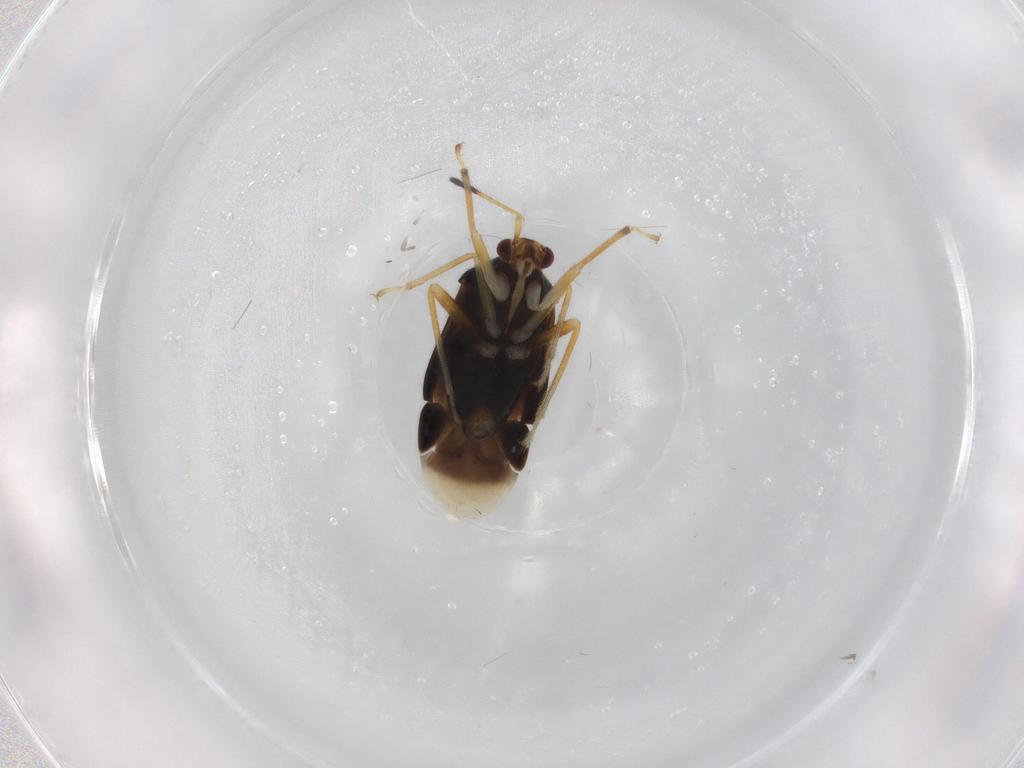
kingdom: Animalia
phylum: Arthropoda
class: Insecta
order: Hemiptera
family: Miridae
